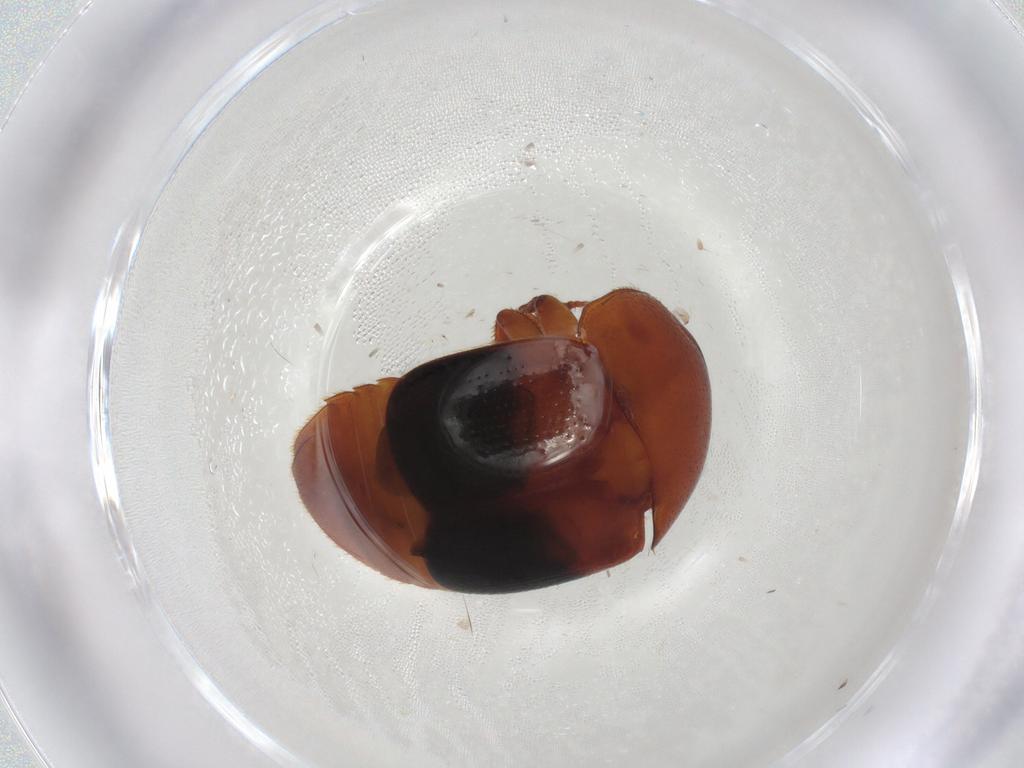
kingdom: Animalia
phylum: Arthropoda
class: Insecta
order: Coleoptera
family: Nitidulidae
